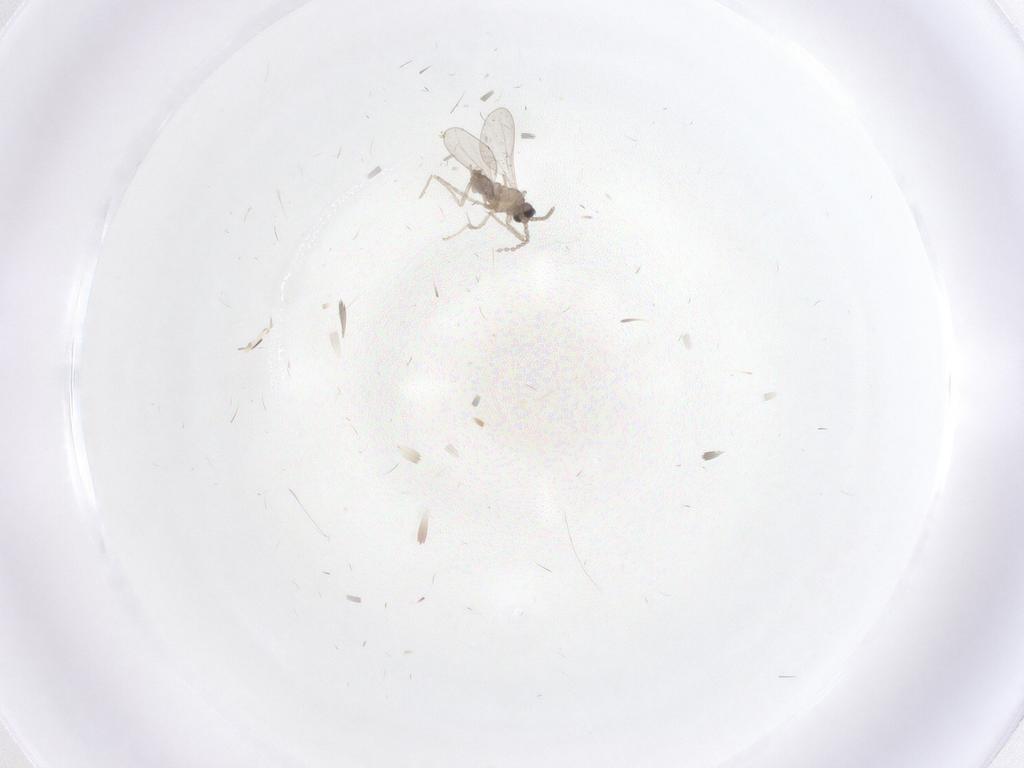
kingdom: Animalia
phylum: Arthropoda
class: Insecta
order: Diptera
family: Cecidomyiidae
